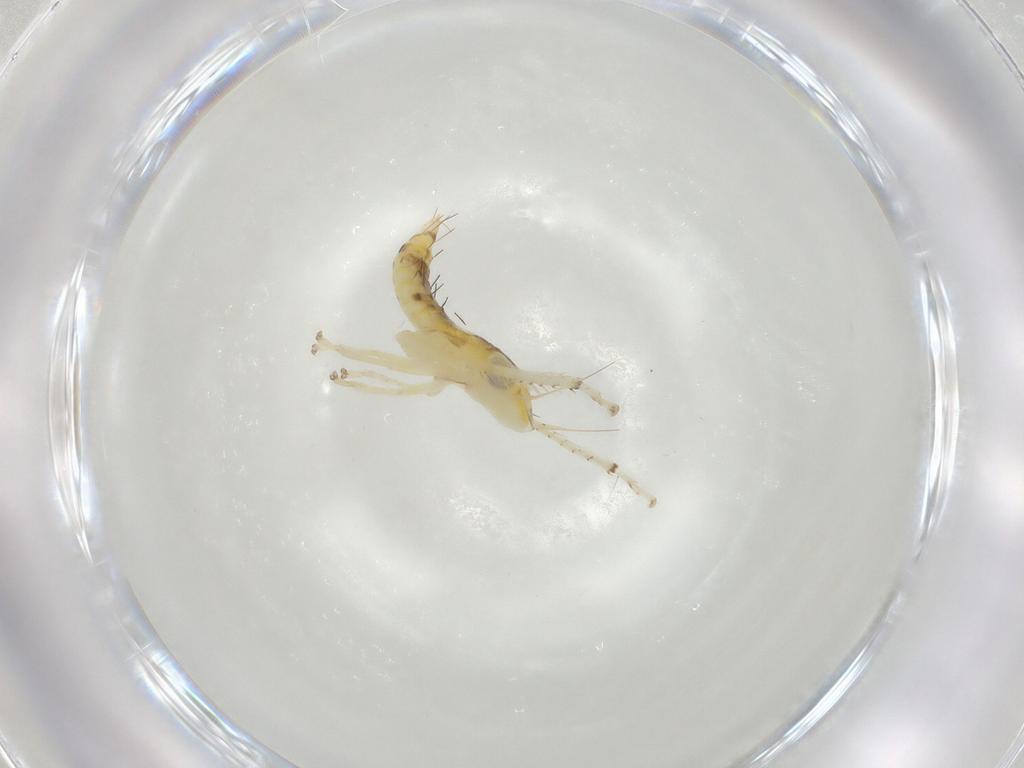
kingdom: Animalia
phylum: Arthropoda
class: Insecta
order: Hemiptera
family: Cicadellidae
